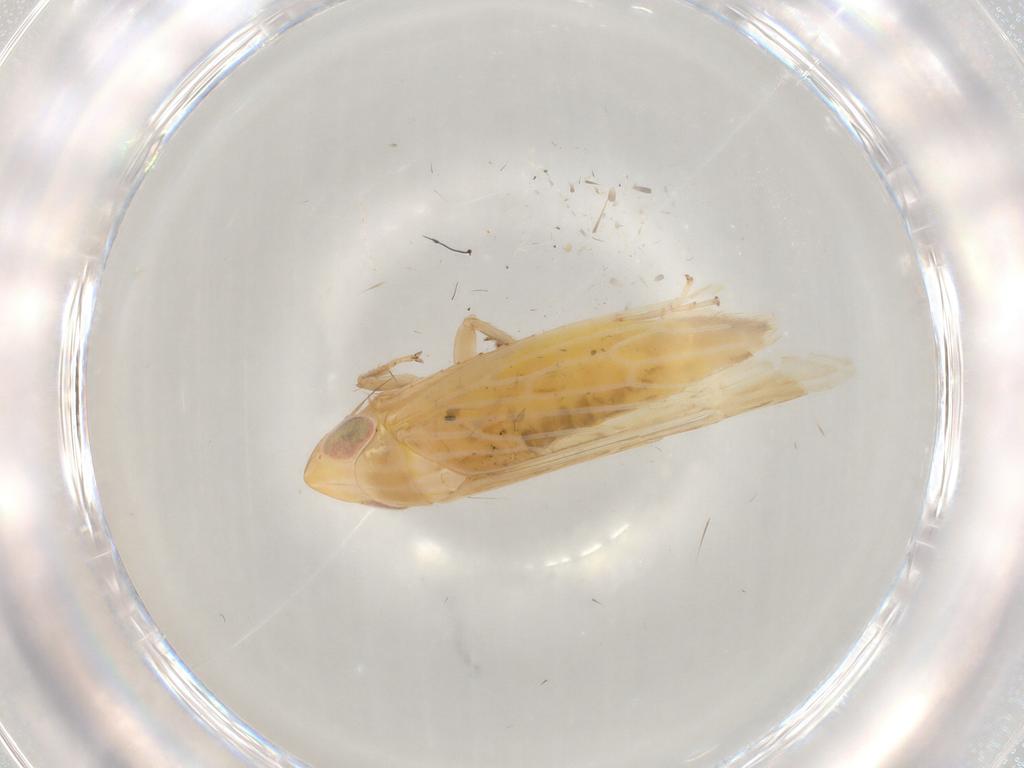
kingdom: Animalia
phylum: Arthropoda
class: Insecta
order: Hemiptera
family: Cicadellidae
